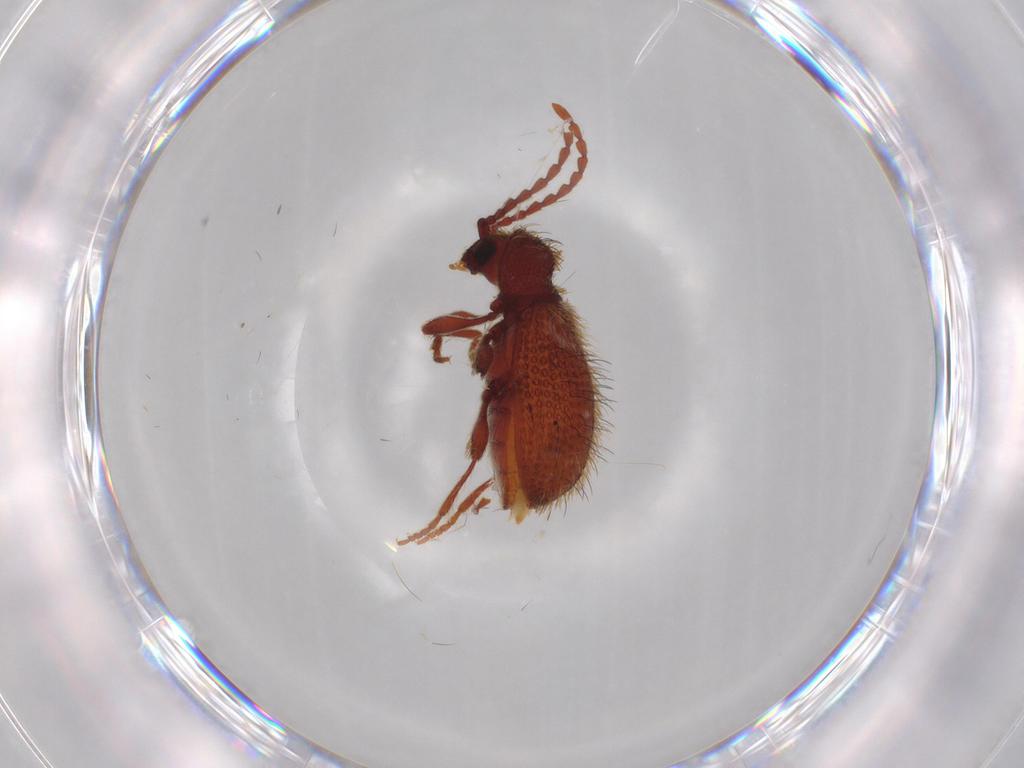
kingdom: Animalia
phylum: Arthropoda
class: Insecta
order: Coleoptera
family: Ptinidae
